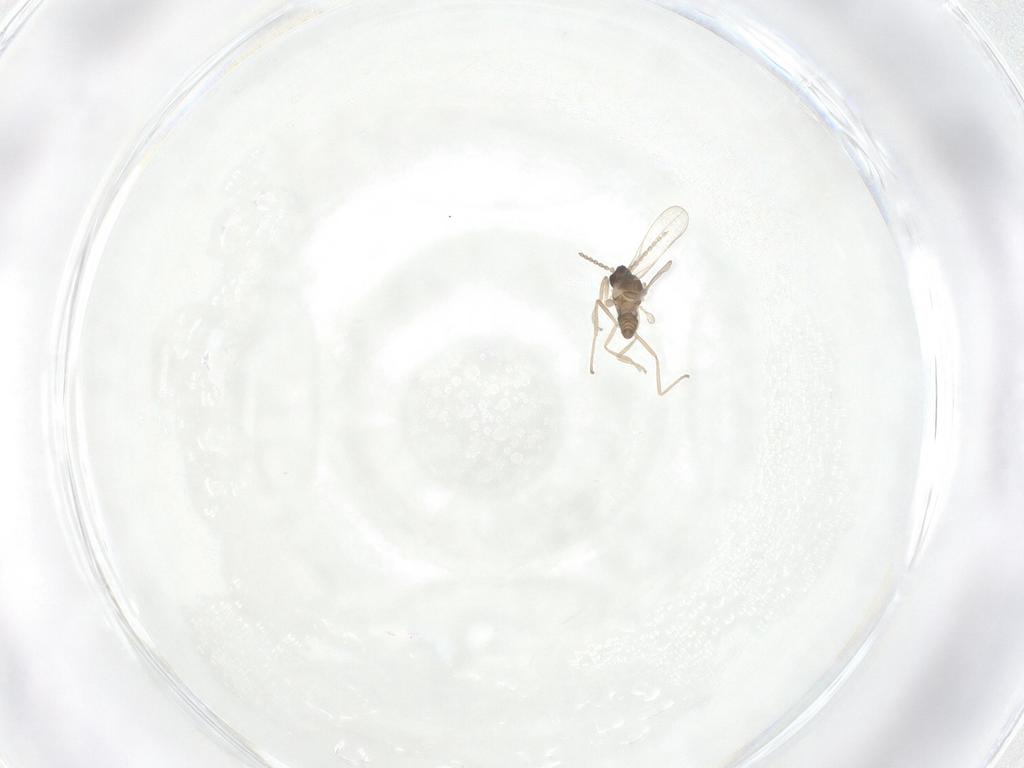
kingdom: Animalia
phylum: Arthropoda
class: Insecta
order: Diptera
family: Cecidomyiidae
